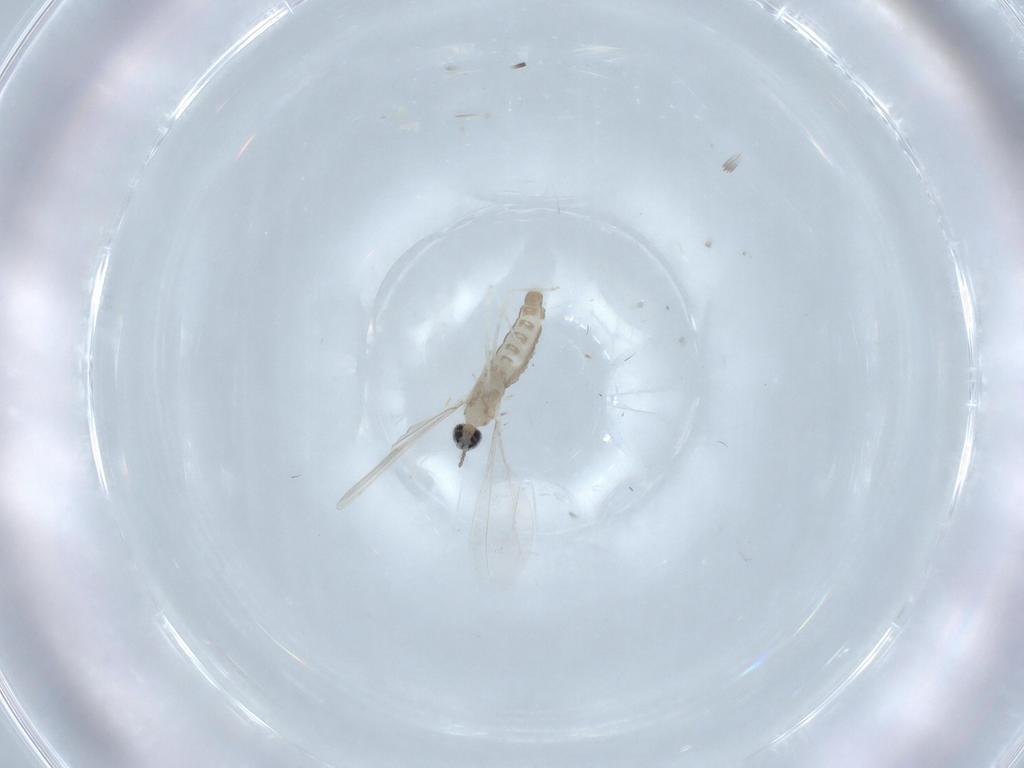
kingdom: Animalia
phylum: Arthropoda
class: Insecta
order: Diptera
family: Cecidomyiidae
